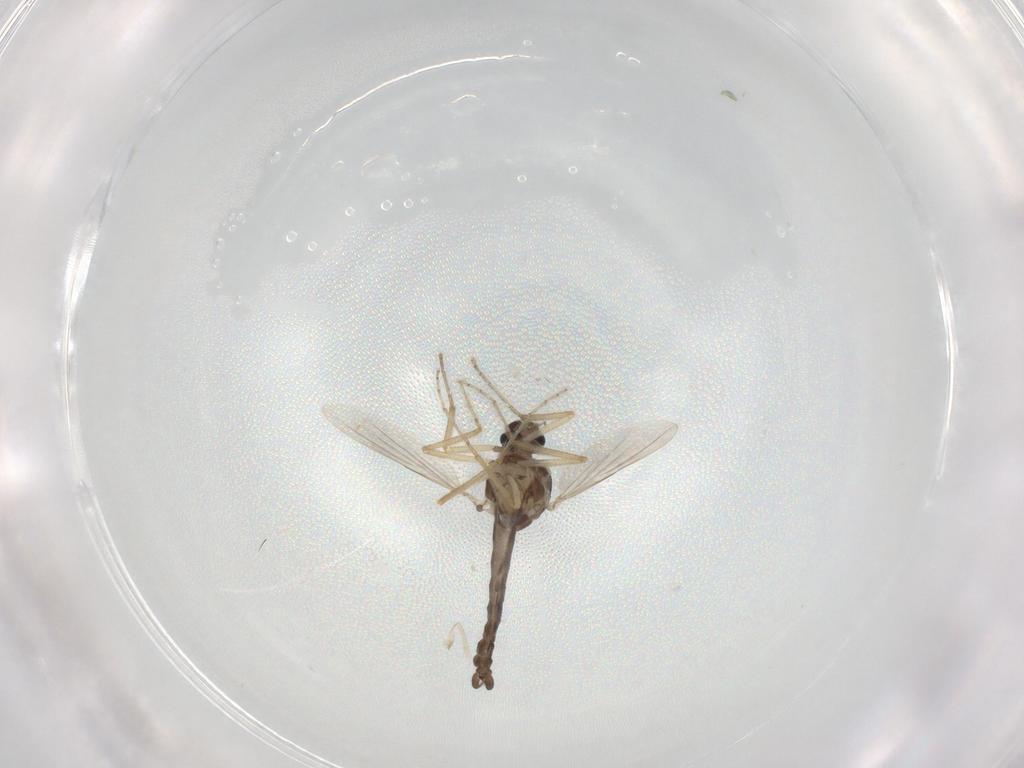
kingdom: Animalia
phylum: Arthropoda
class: Insecta
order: Diptera
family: Ceratopogonidae
